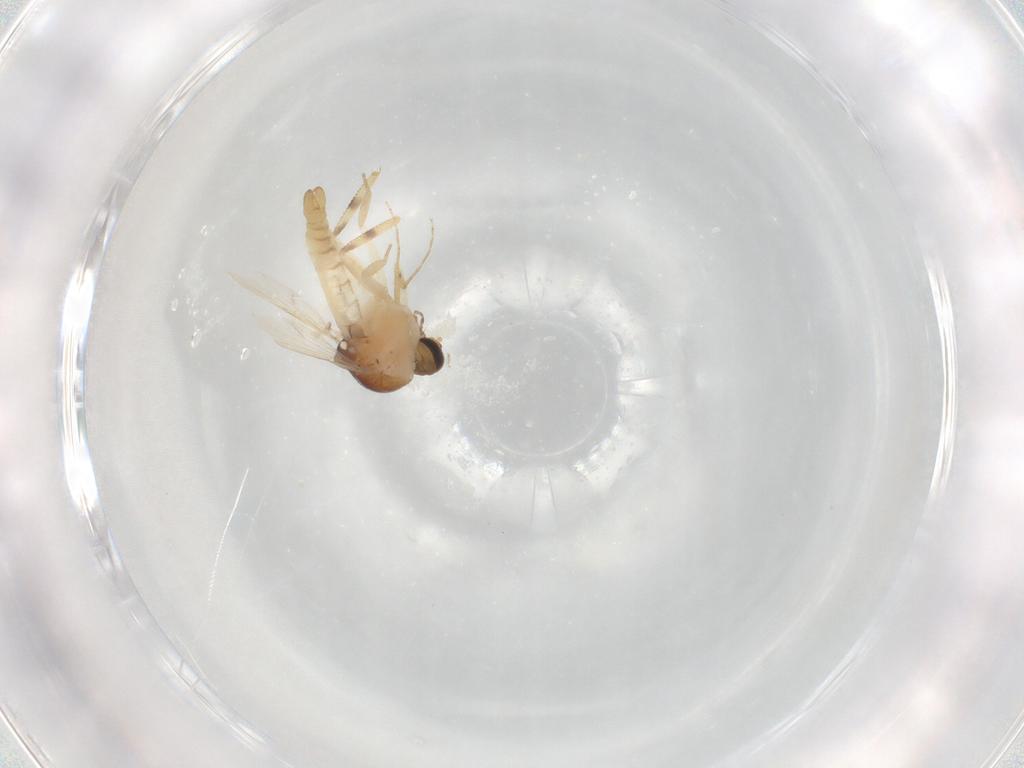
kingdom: Animalia
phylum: Arthropoda
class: Insecta
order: Diptera
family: Ceratopogonidae
